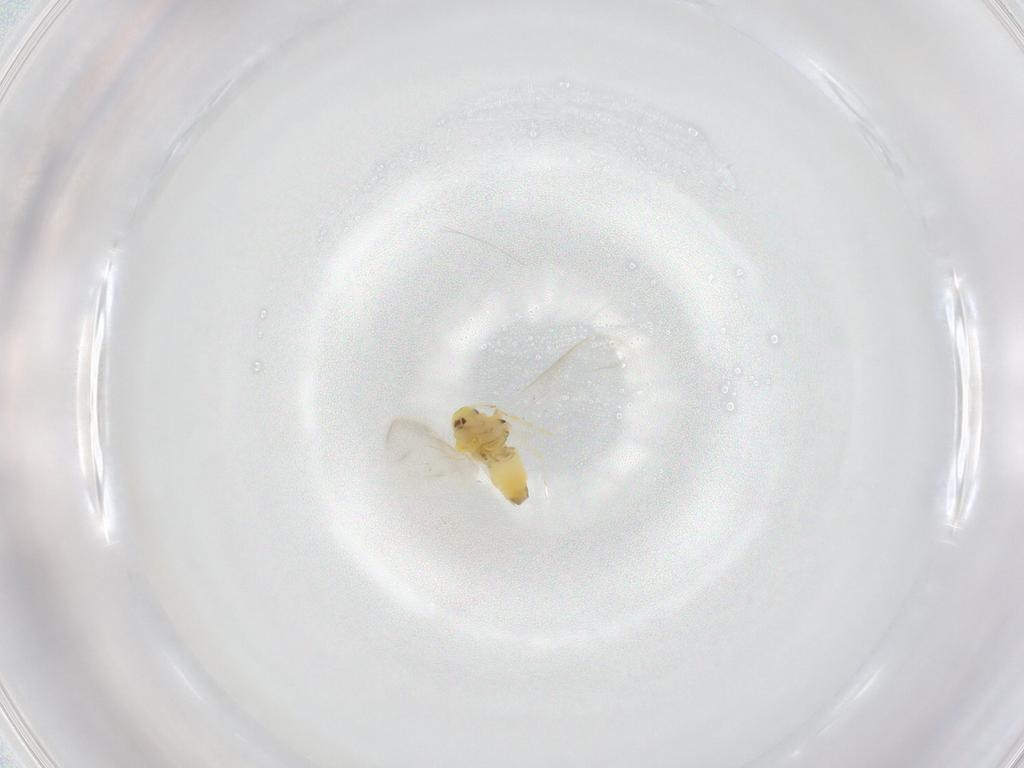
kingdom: Animalia
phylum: Arthropoda
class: Insecta
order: Hemiptera
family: Aleyrodidae
